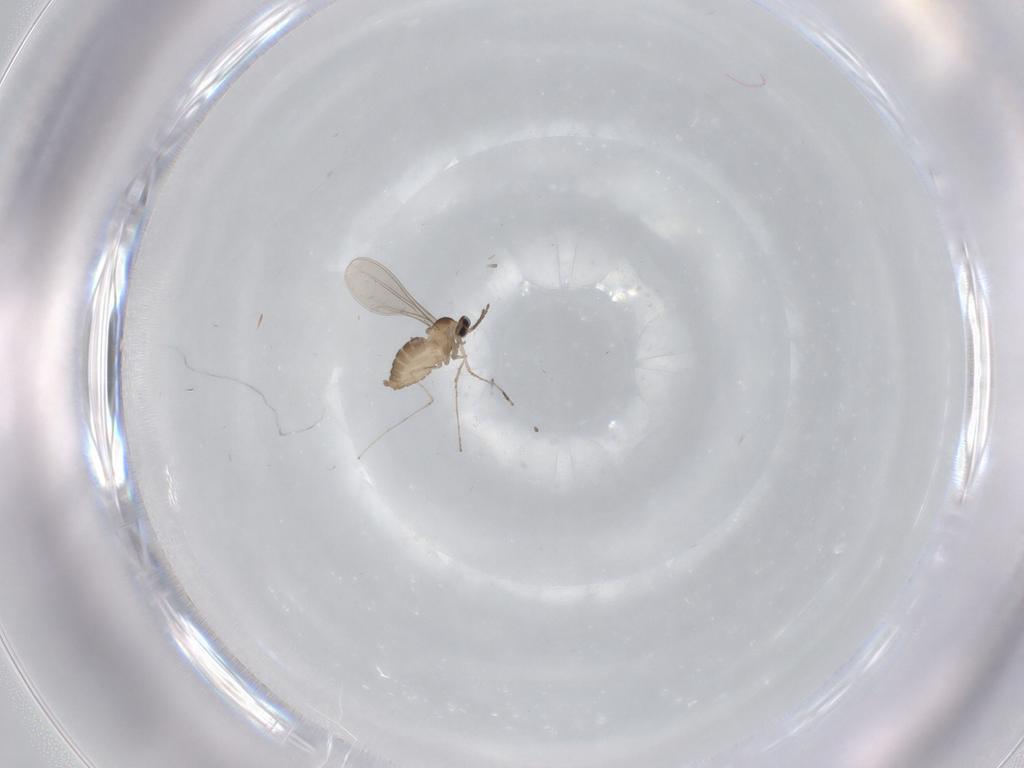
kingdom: Animalia
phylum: Arthropoda
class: Insecta
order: Diptera
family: Cecidomyiidae
